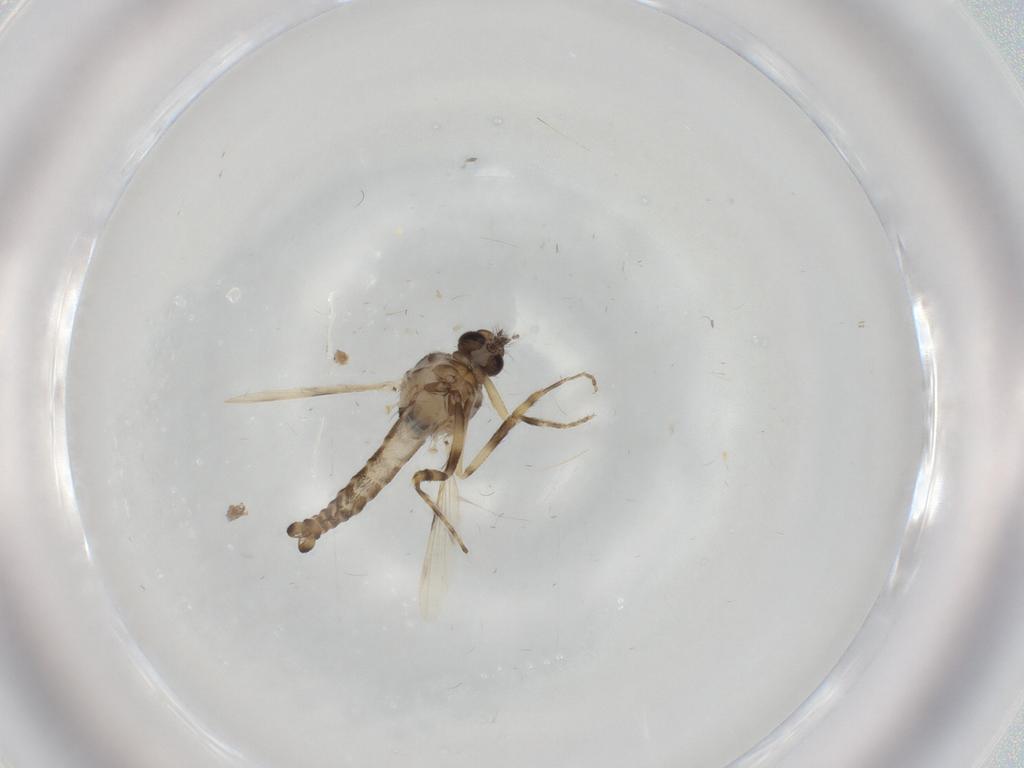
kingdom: Animalia
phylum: Arthropoda
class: Insecta
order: Diptera
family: Ceratopogonidae
